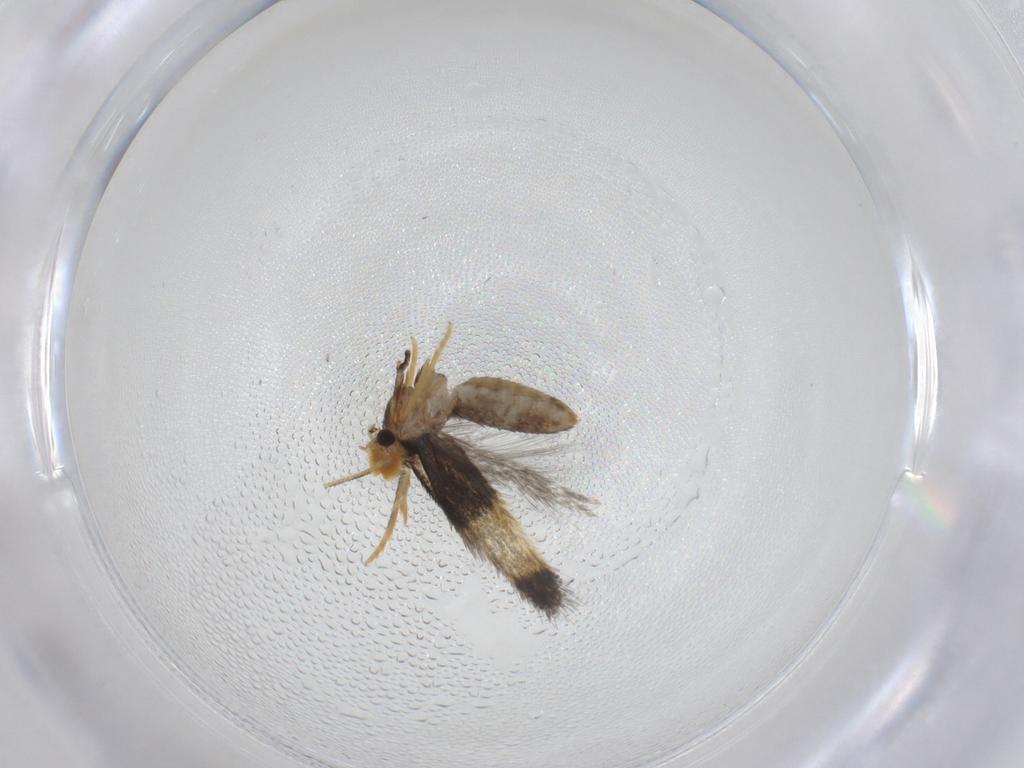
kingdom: Animalia
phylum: Arthropoda
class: Insecta
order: Lepidoptera
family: Nepticulidae
